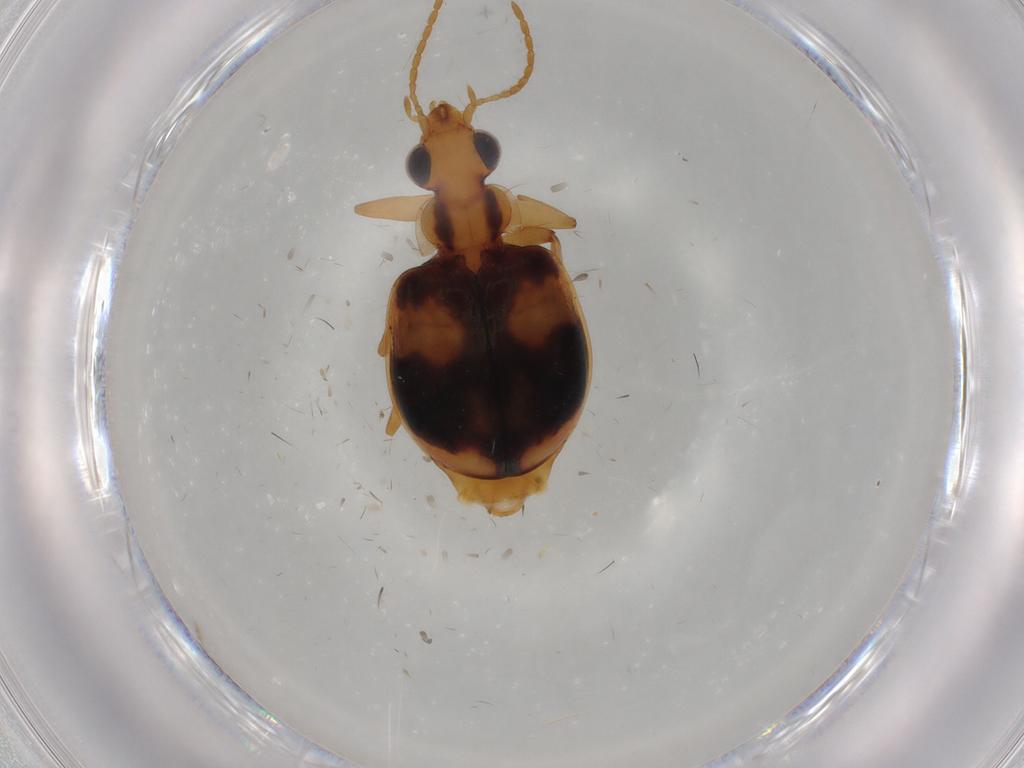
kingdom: Animalia
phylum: Arthropoda
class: Insecta
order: Coleoptera
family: Carabidae
